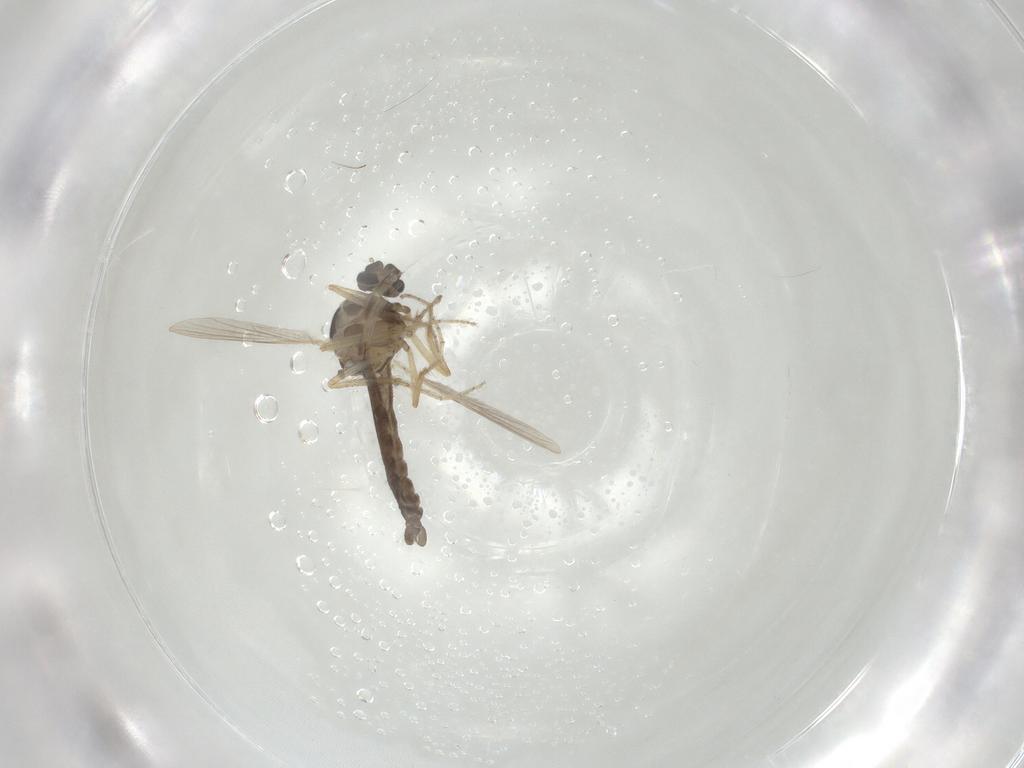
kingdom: Animalia
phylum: Arthropoda
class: Insecta
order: Diptera
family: Ceratopogonidae
